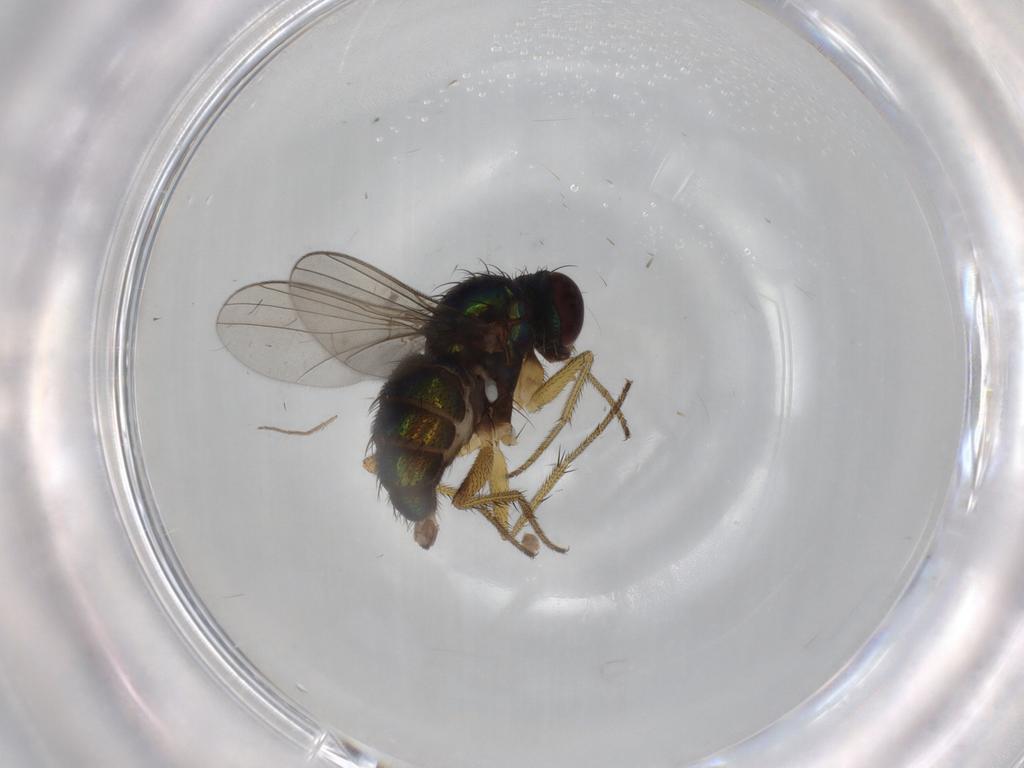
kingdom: Animalia
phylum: Arthropoda
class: Insecta
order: Diptera
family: Dolichopodidae
